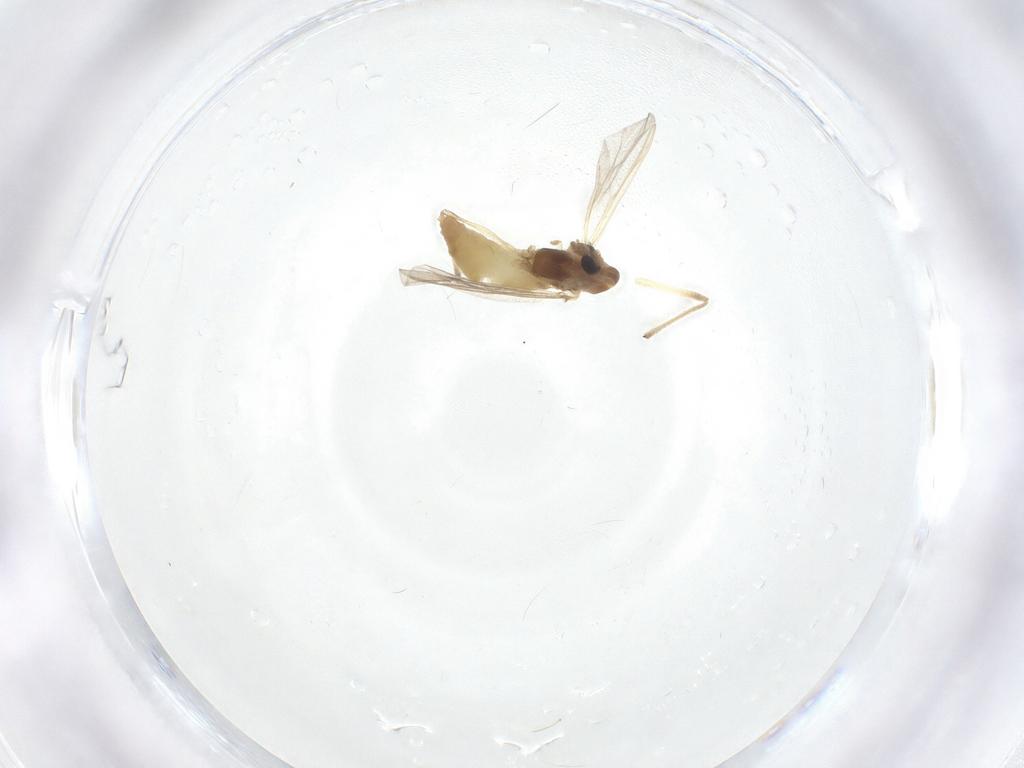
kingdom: Animalia
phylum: Arthropoda
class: Insecta
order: Diptera
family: Chironomidae
